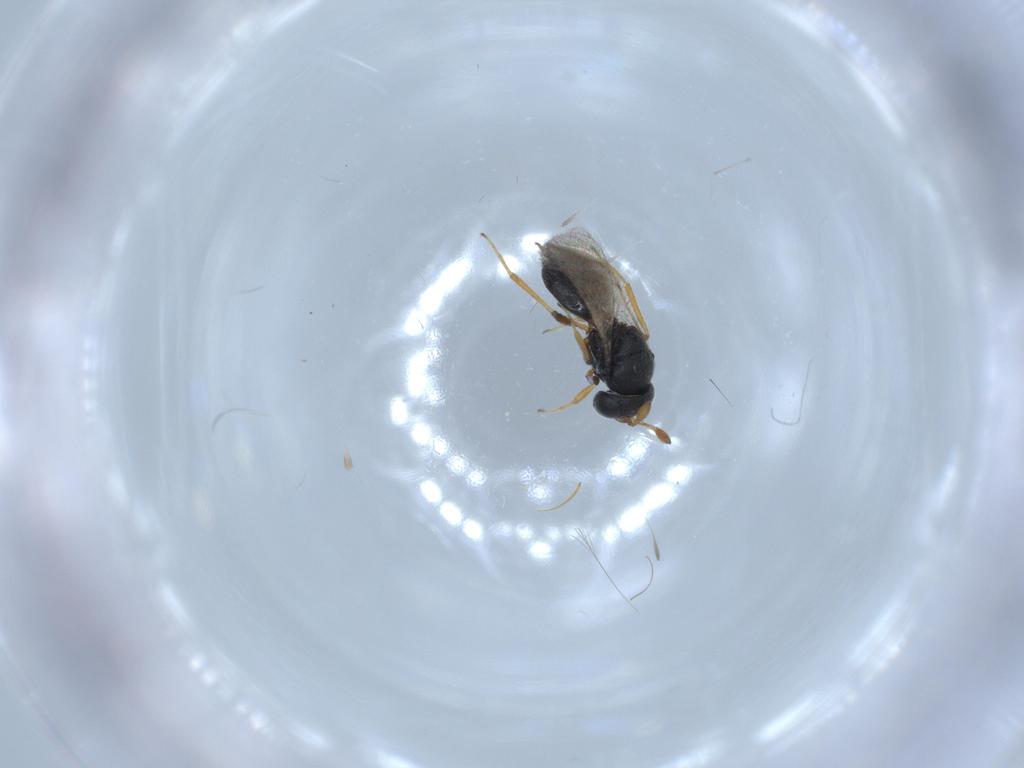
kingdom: Animalia
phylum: Arthropoda
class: Insecta
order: Hymenoptera
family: Scelionidae
